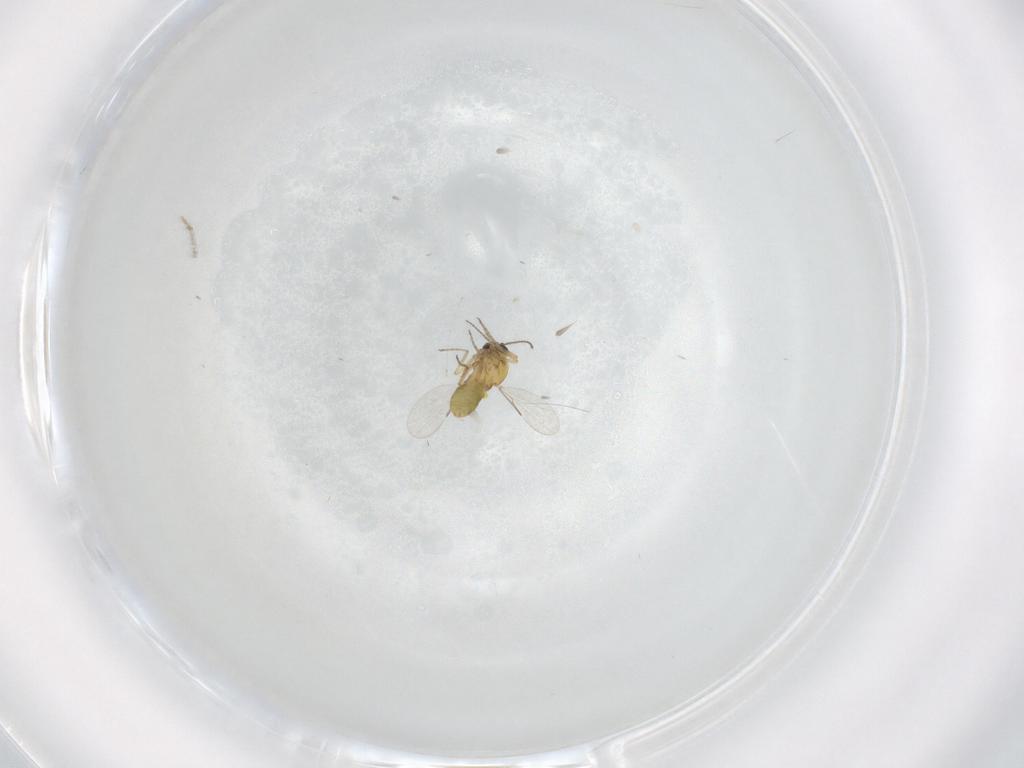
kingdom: Animalia
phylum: Arthropoda
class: Insecta
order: Diptera
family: Ceratopogonidae
